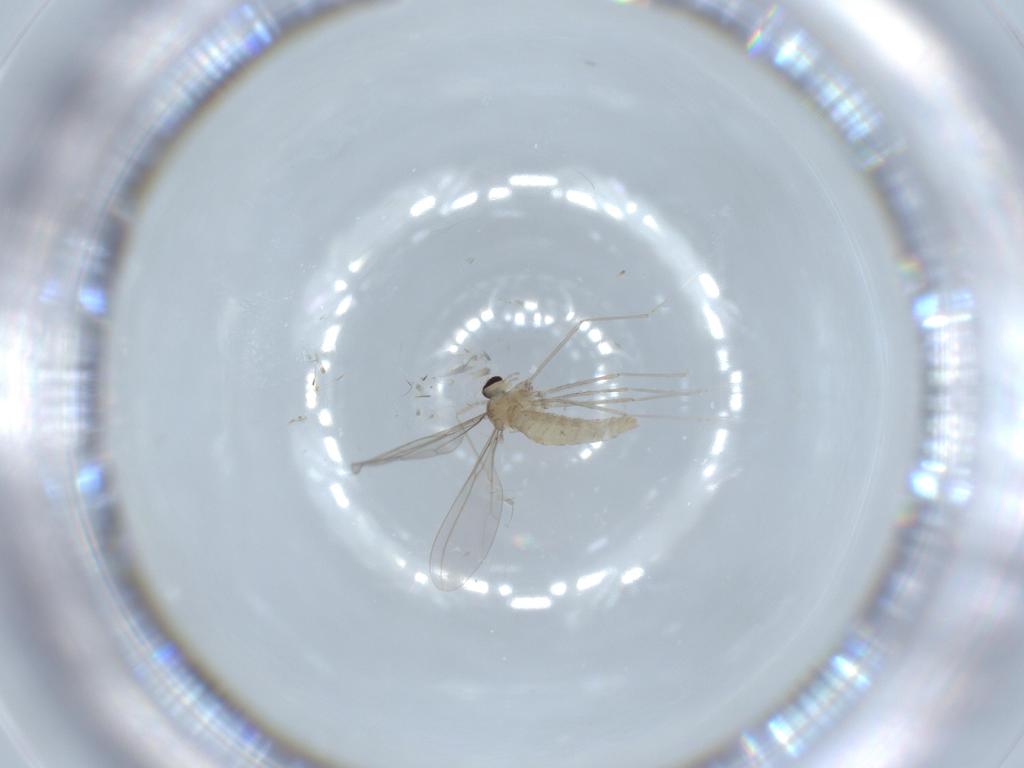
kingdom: Animalia
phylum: Arthropoda
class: Insecta
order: Diptera
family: Cecidomyiidae
